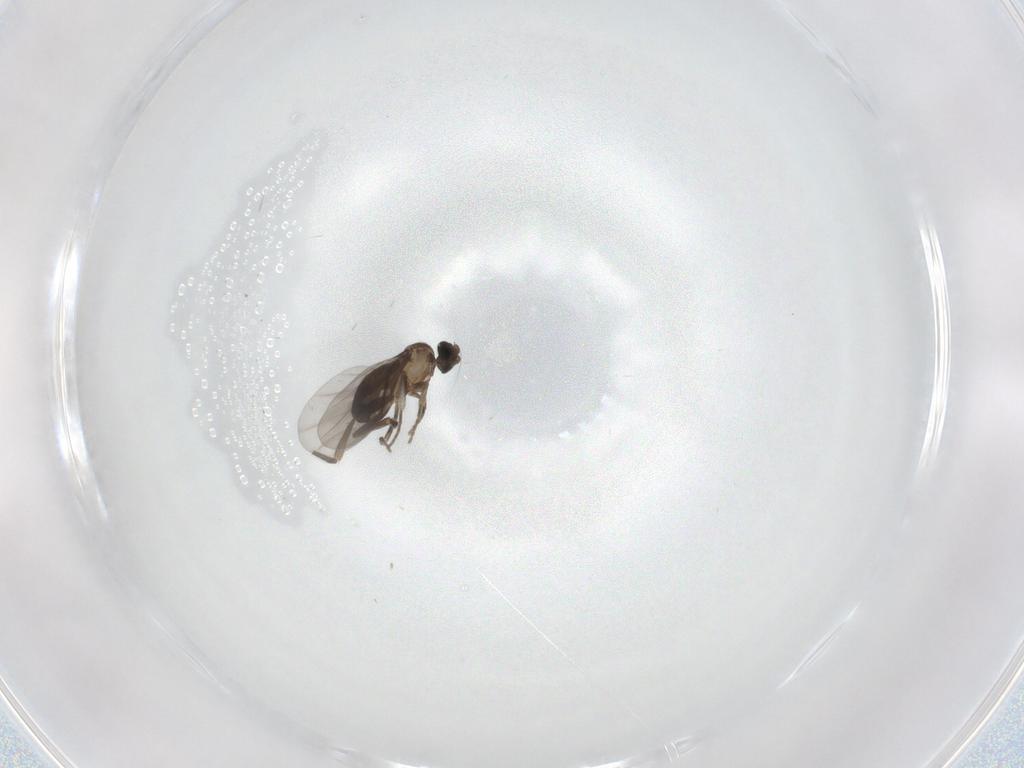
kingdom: Animalia
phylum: Arthropoda
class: Insecta
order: Diptera
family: Phoridae
